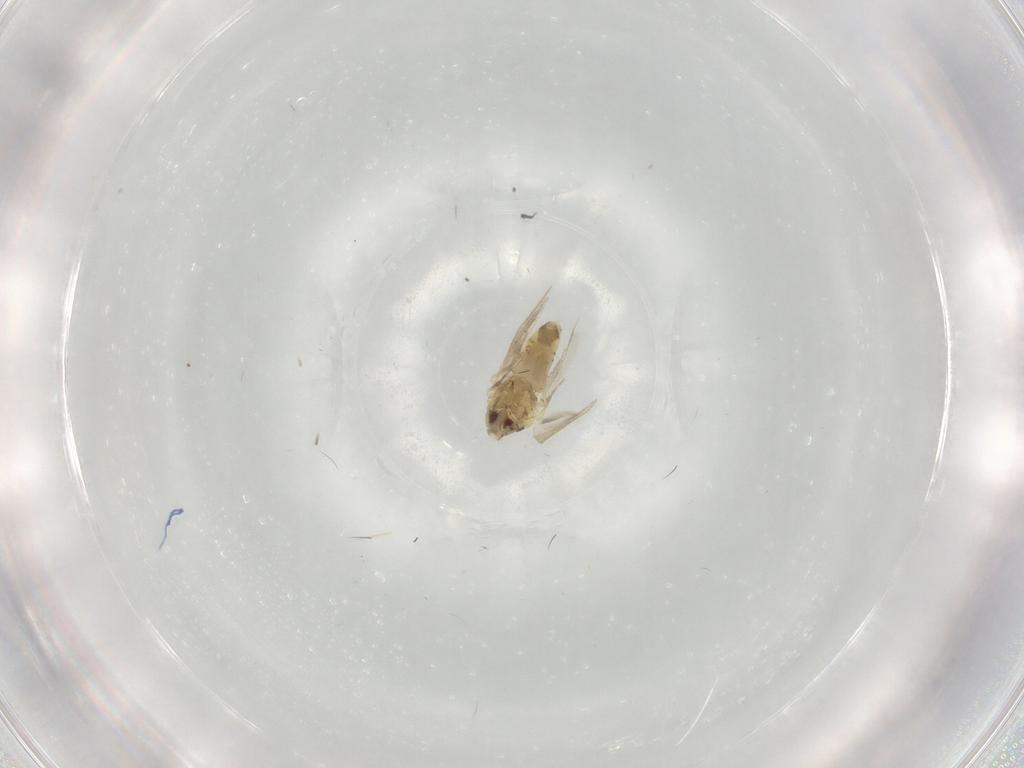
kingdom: Animalia
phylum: Arthropoda
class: Insecta
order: Hemiptera
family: Aleyrodidae
